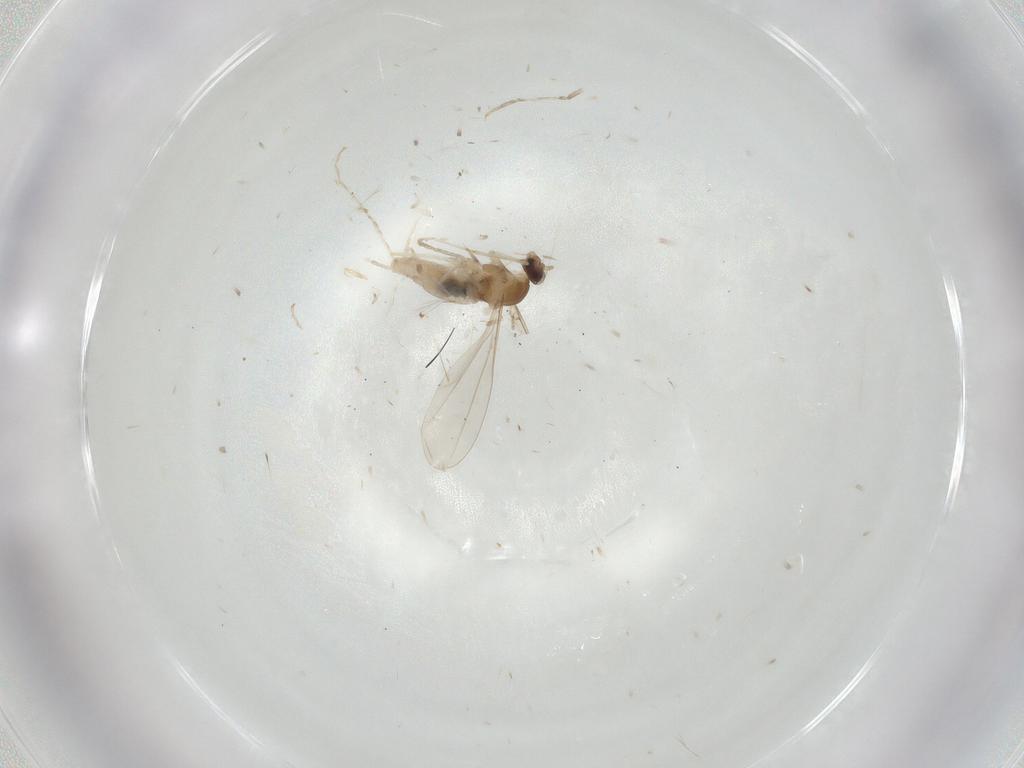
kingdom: Animalia
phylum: Arthropoda
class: Insecta
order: Diptera
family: Cecidomyiidae
